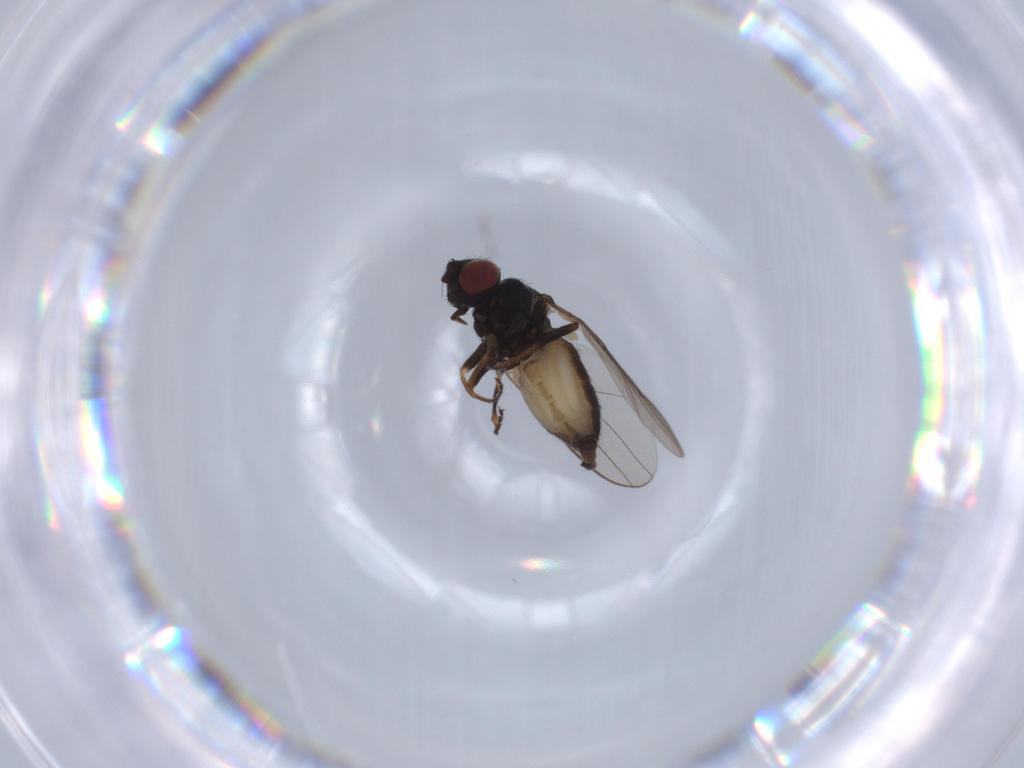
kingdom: Animalia
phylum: Arthropoda
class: Insecta
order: Diptera
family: Chloropidae
